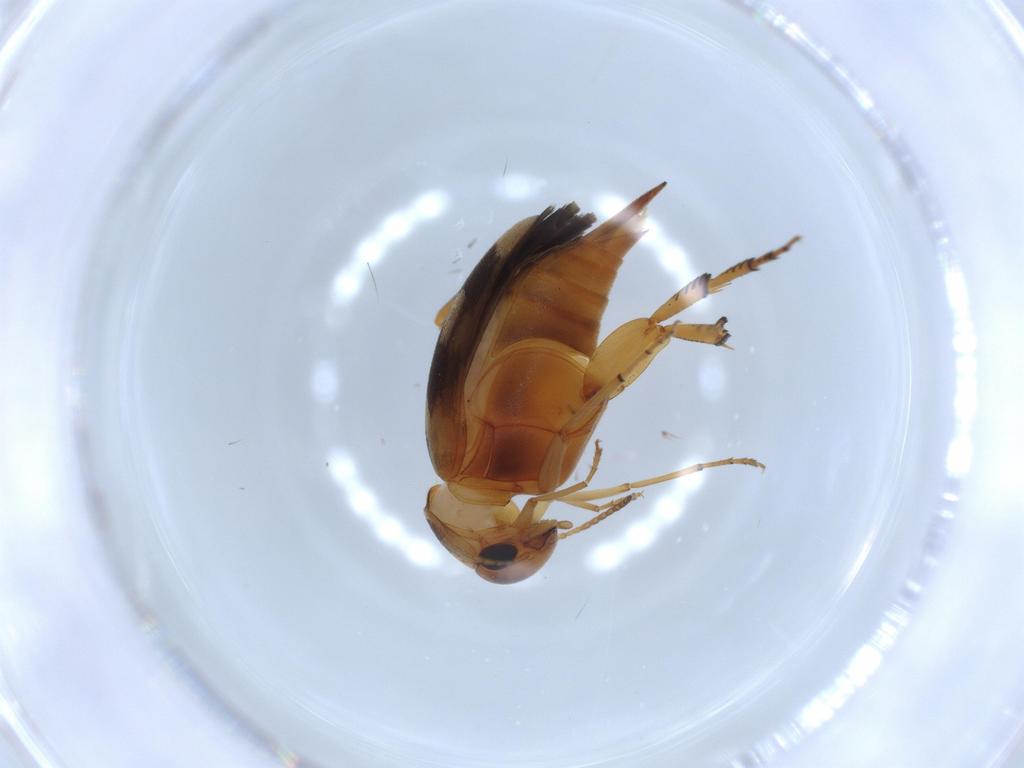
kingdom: Animalia
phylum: Arthropoda
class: Insecta
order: Coleoptera
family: Mordellidae
